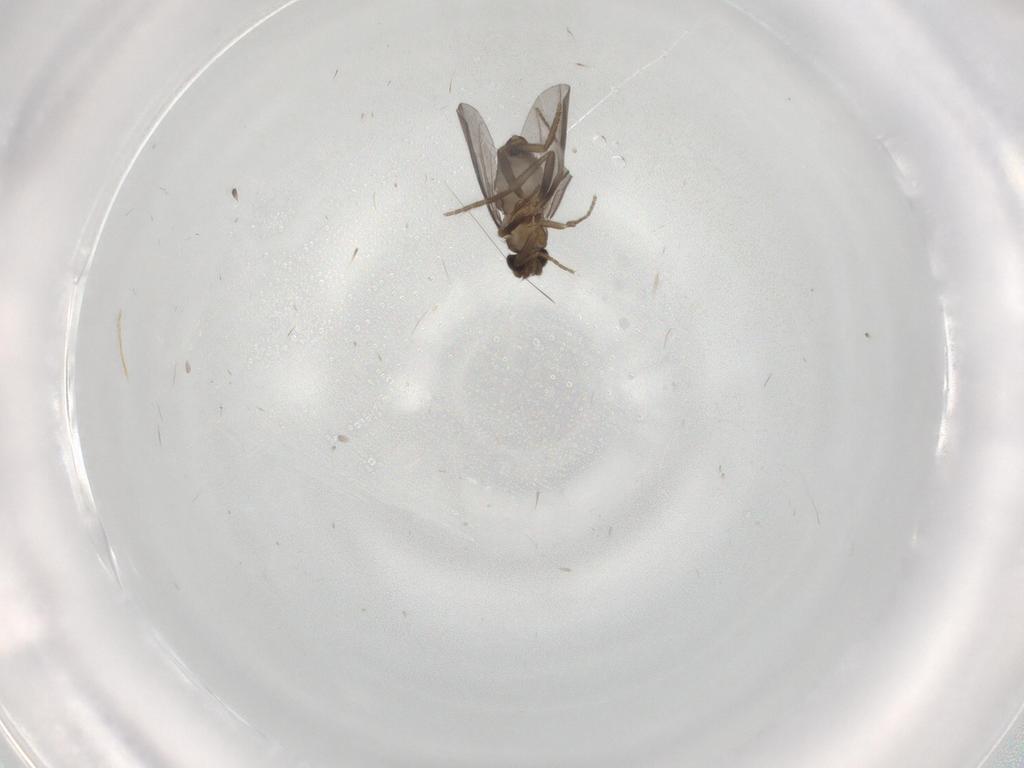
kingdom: Animalia
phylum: Arthropoda
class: Insecta
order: Diptera
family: Phoridae
